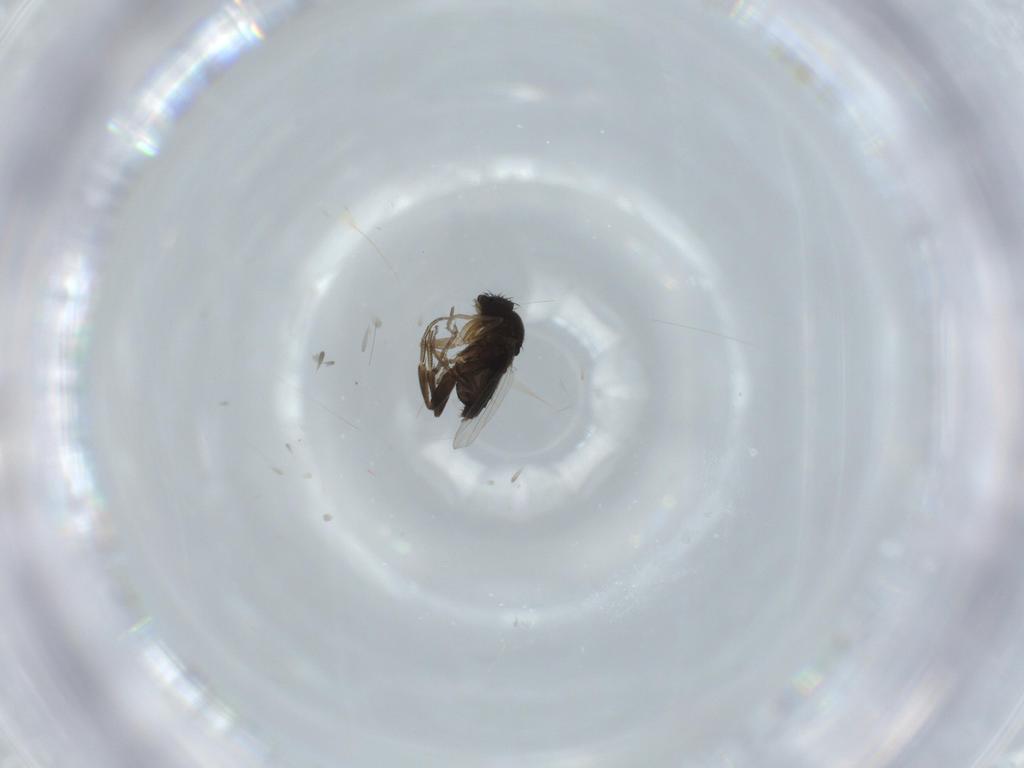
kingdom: Animalia
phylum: Arthropoda
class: Insecta
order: Diptera
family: Phoridae
